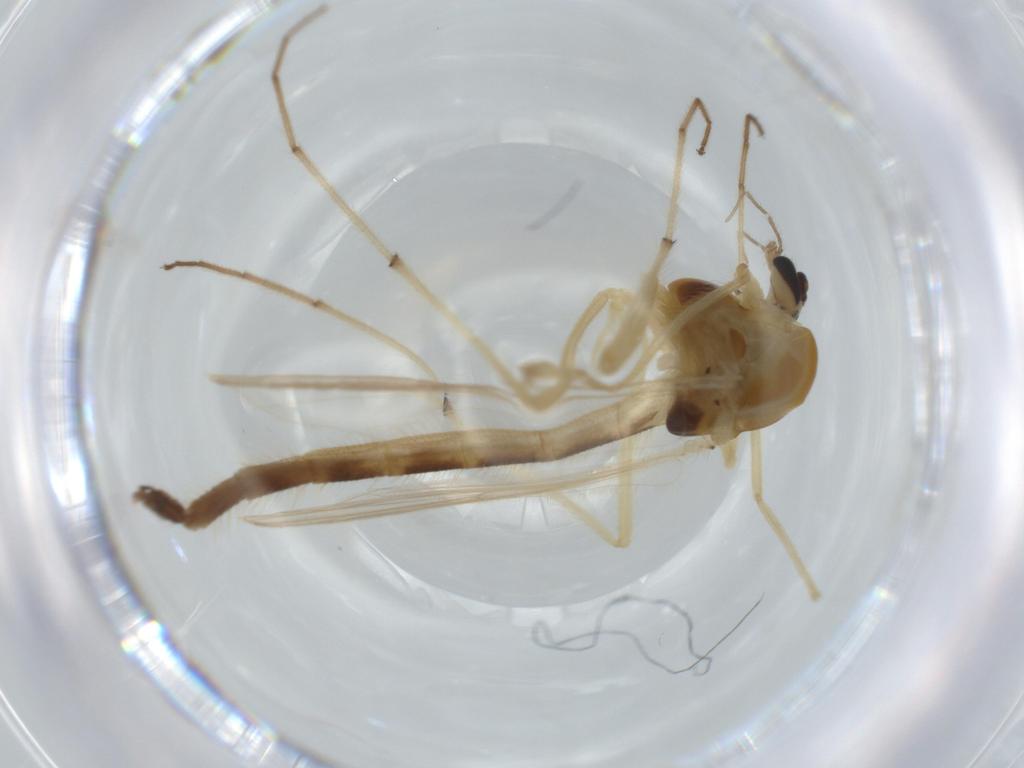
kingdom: Animalia
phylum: Arthropoda
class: Insecta
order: Diptera
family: Chironomidae
